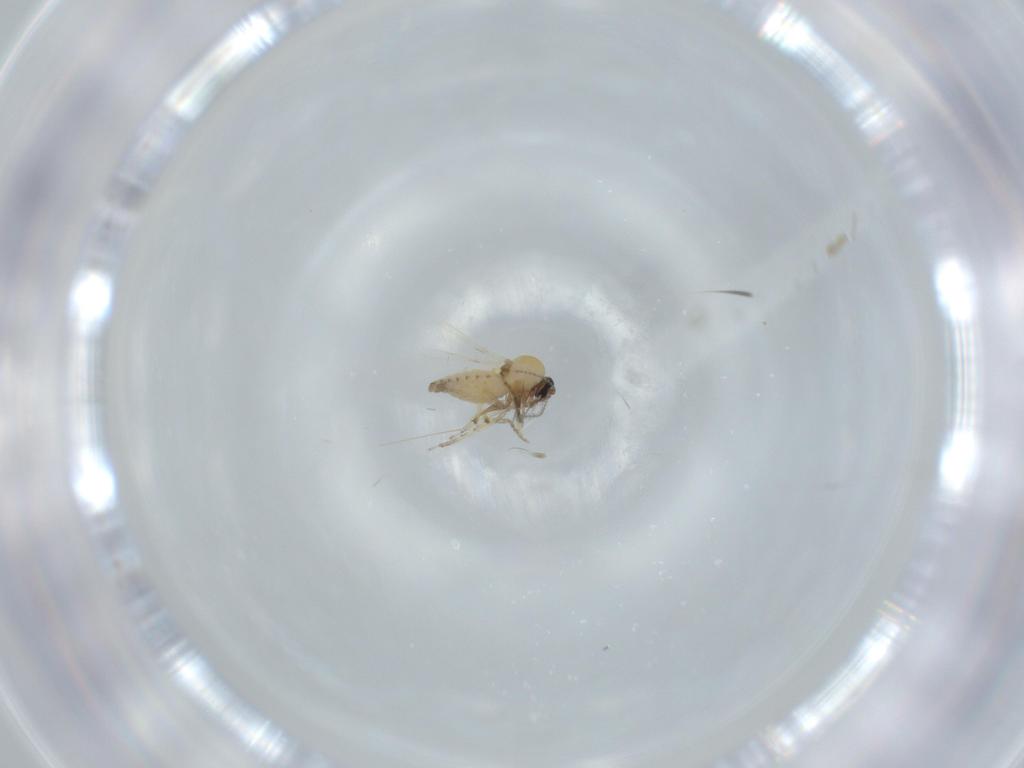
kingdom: Animalia
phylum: Arthropoda
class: Insecta
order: Diptera
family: Ceratopogonidae
